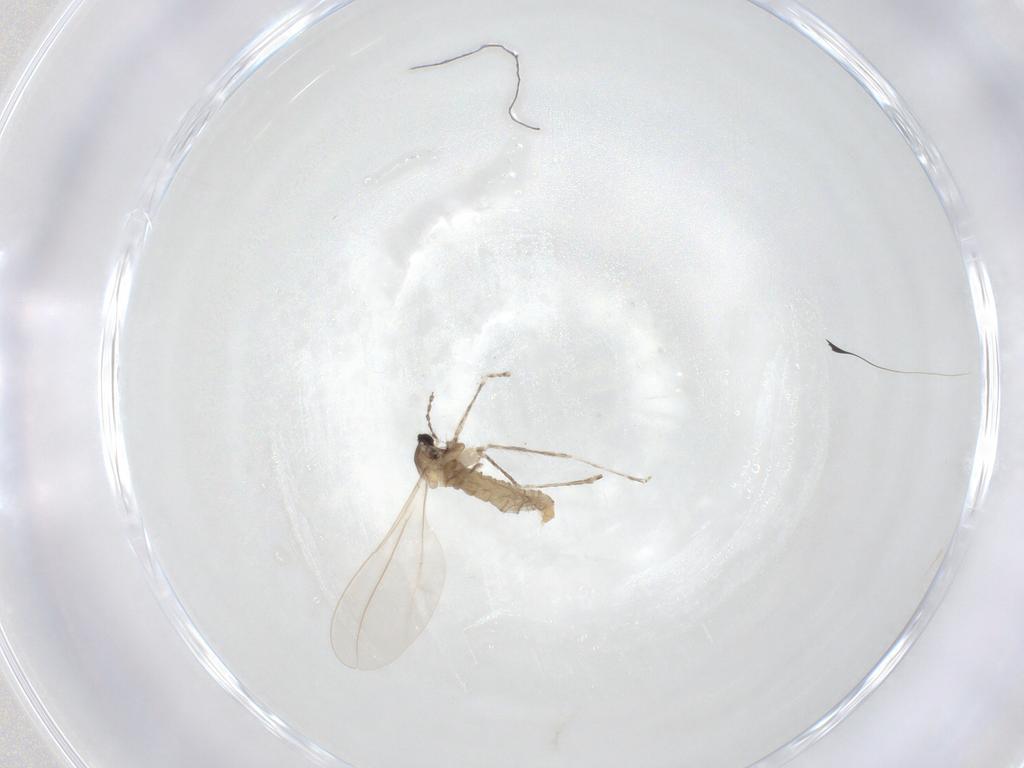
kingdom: Animalia
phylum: Arthropoda
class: Insecta
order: Diptera
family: Cecidomyiidae
